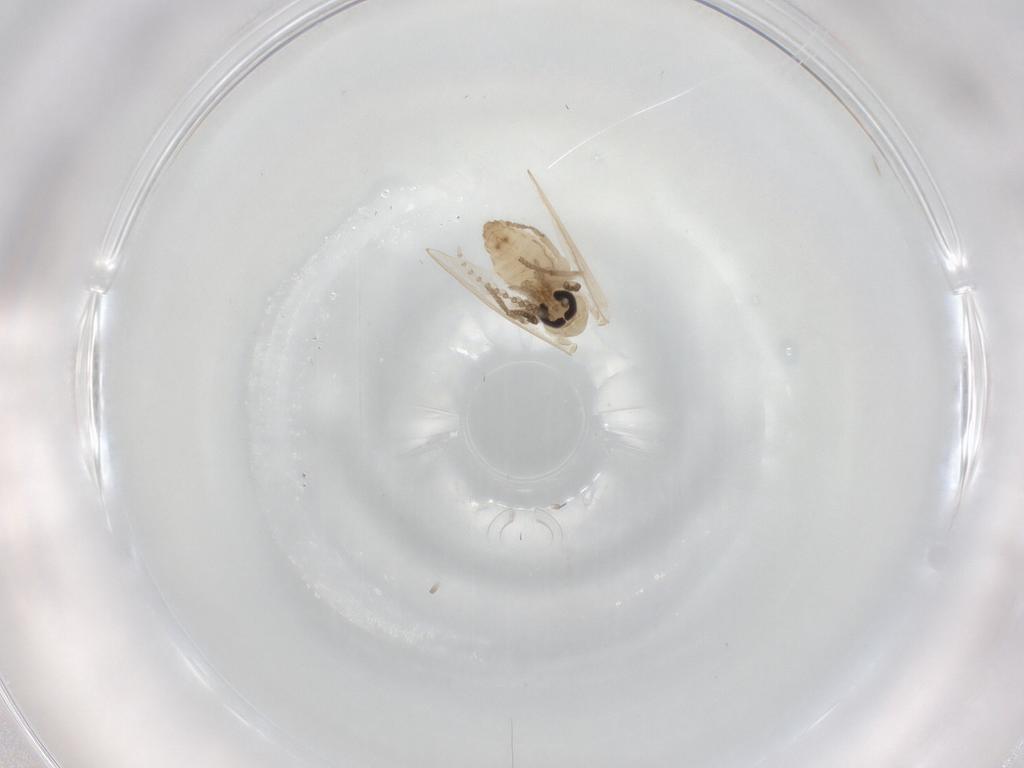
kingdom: Animalia
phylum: Arthropoda
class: Insecta
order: Diptera
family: Psychodidae
